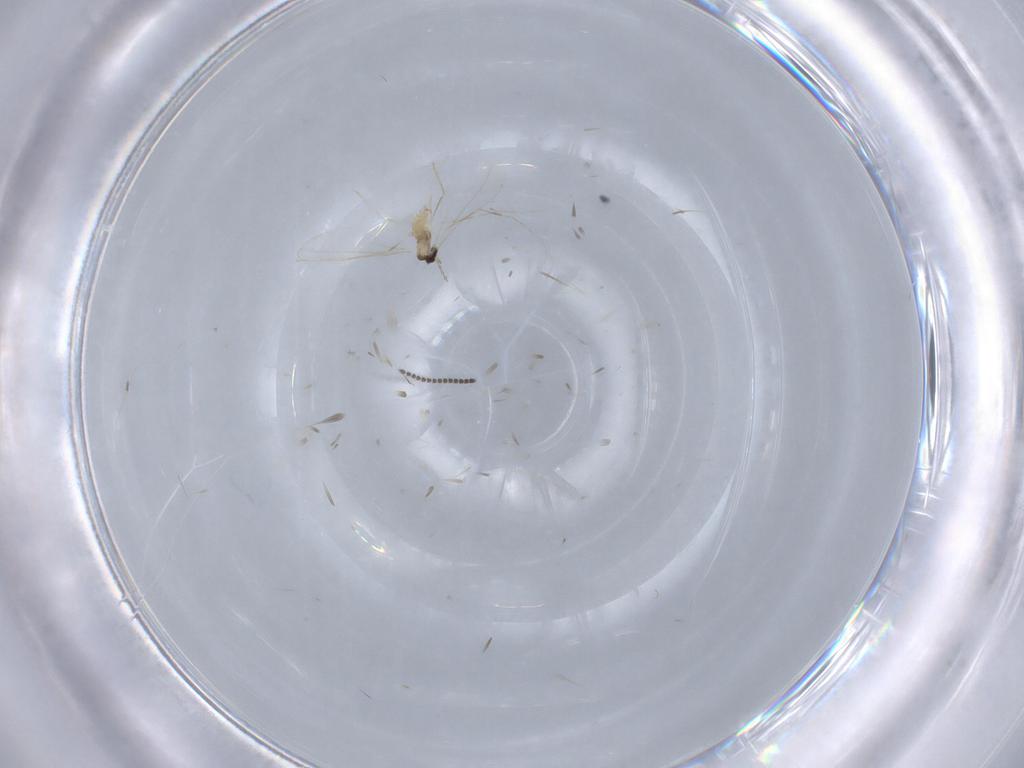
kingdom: Animalia
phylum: Arthropoda
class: Insecta
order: Diptera
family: Cecidomyiidae
